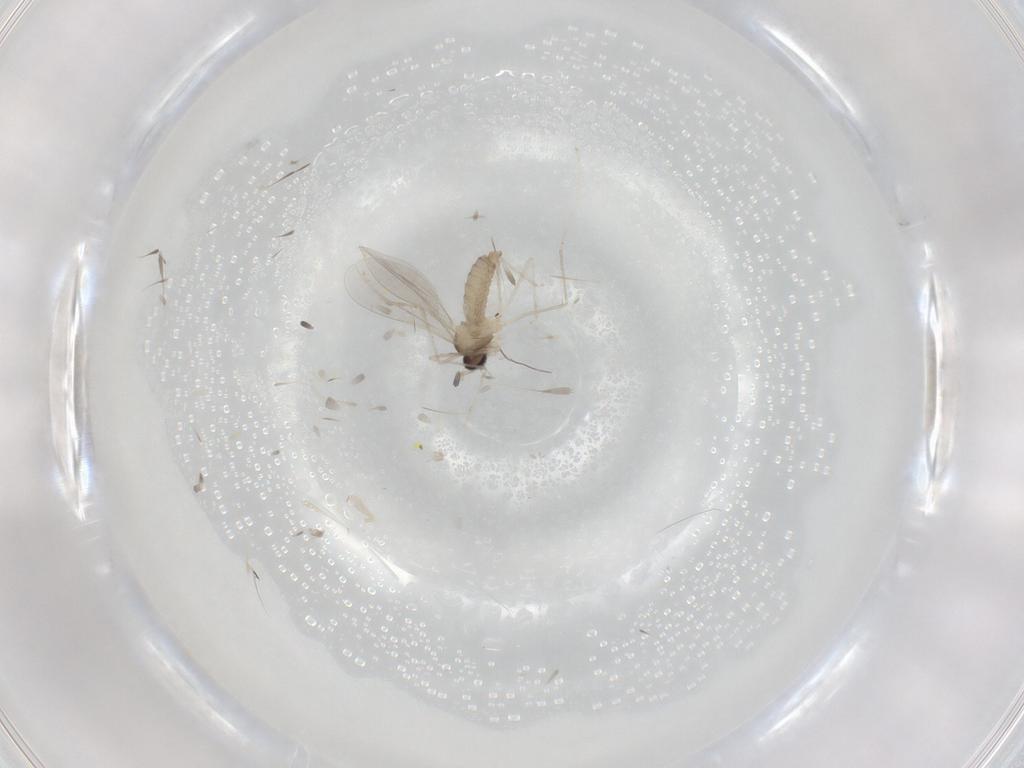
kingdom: Animalia
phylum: Arthropoda
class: Insecta
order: Diptera
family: Cecidomyiidae
